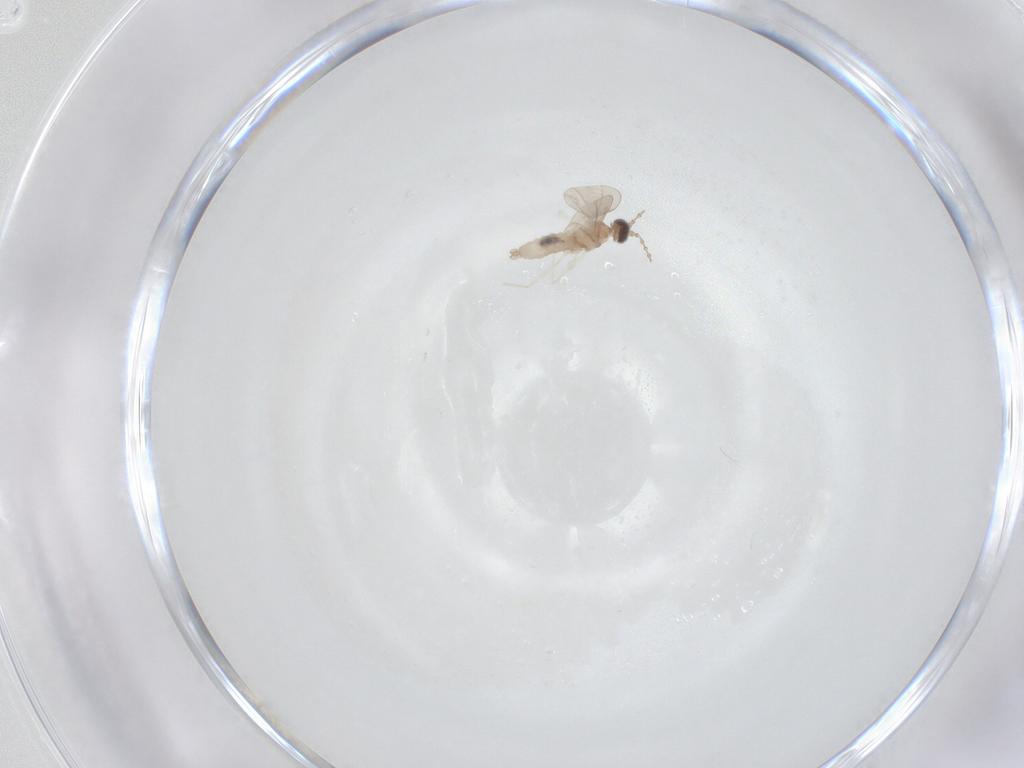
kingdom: Animalia
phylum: Arthropoda
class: Insecta
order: Diptera
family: Cecidomyiidae
